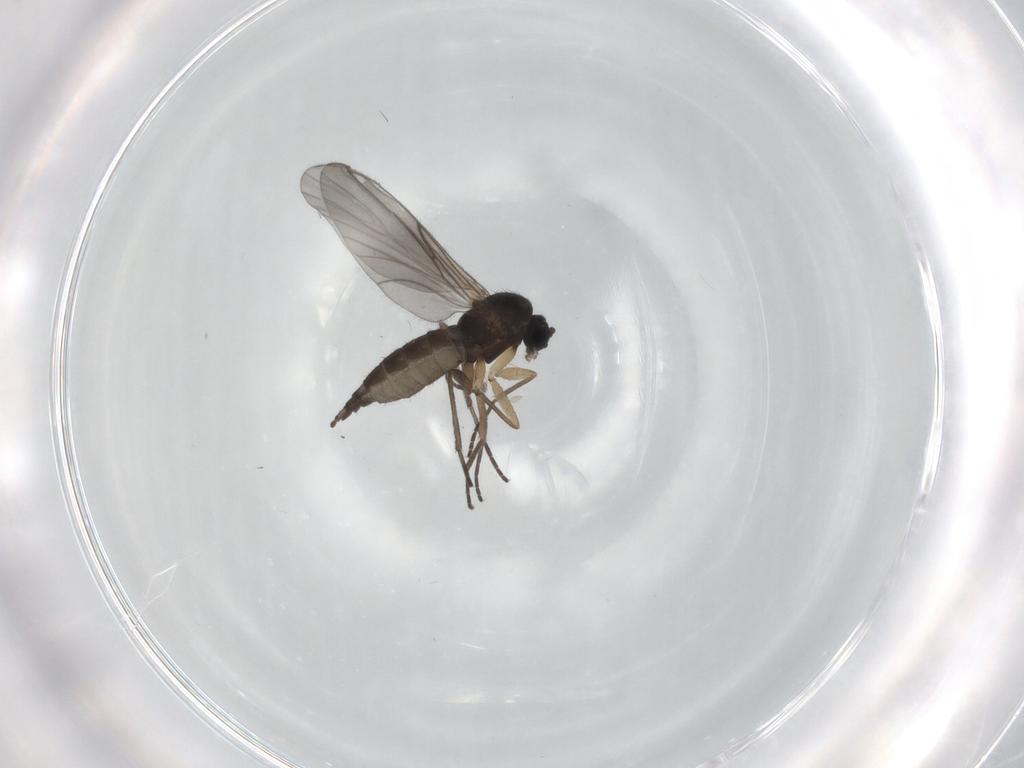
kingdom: Animalia
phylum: Arthropoda
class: Insecta
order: Diptera
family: Sciaridae
